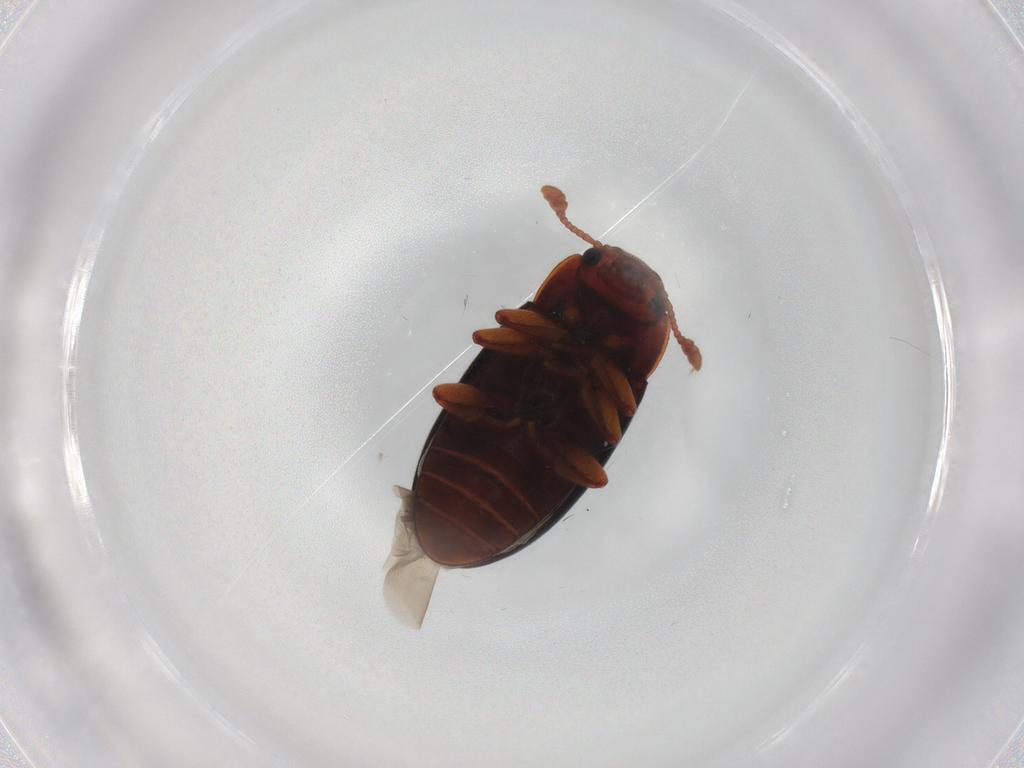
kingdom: Animalia
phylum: Arthropoda
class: Insecta
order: Coleoptera
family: Erotylidae
